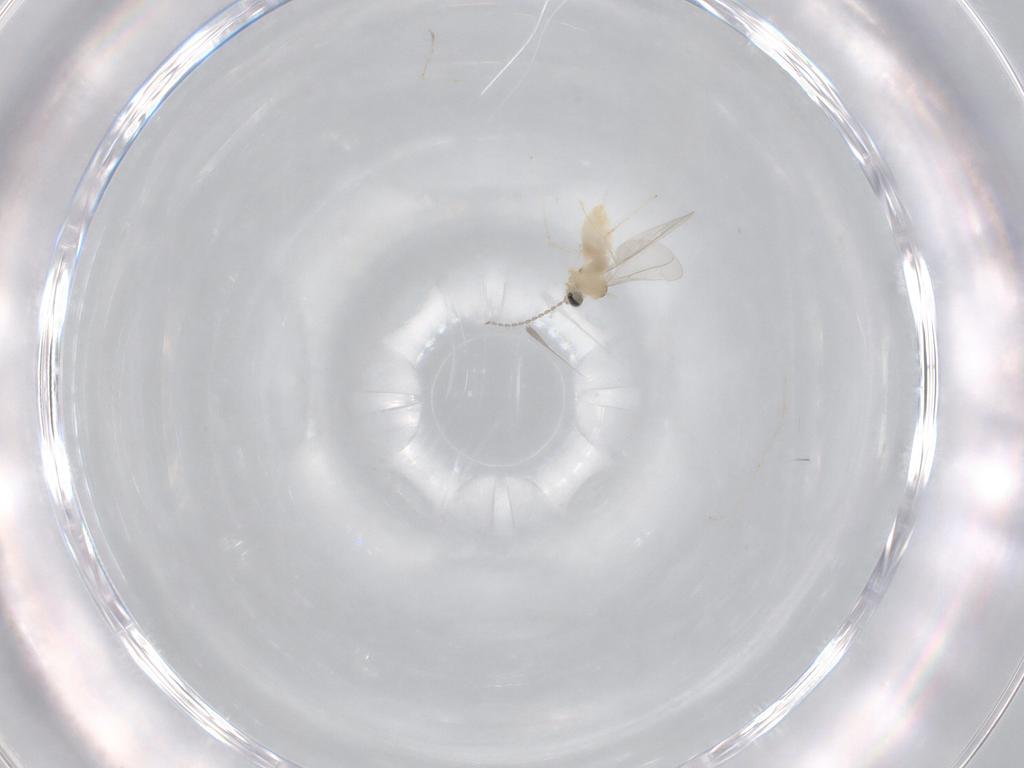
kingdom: Animalia
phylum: Arthropoda
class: Insecta
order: Diptera
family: Cecidomyiidae
